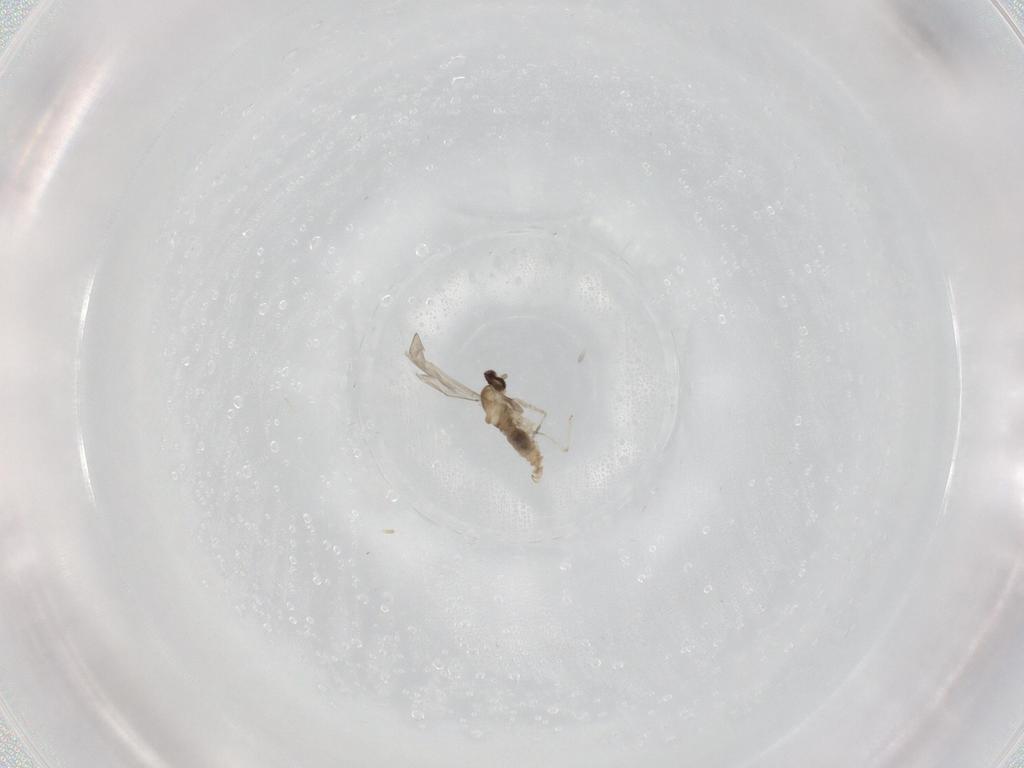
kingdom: Animalia
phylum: Arthropoda
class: Insecta
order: Diptera
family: Cecidomyiidae
